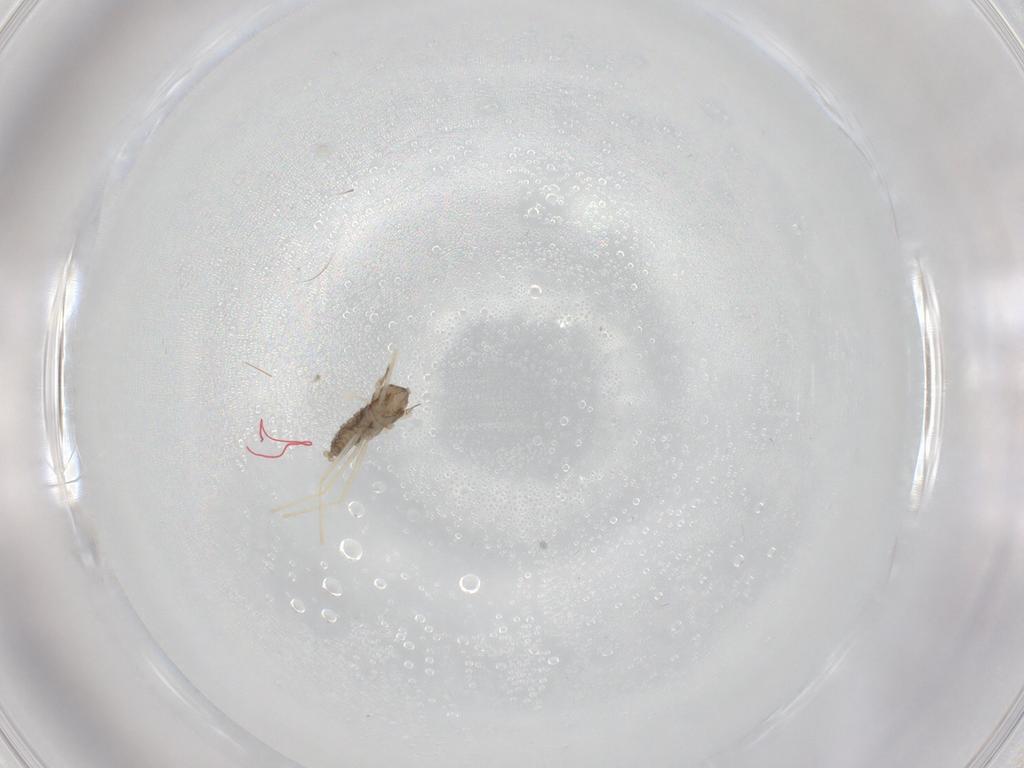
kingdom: Animalia
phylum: Arthropoda
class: Insecta
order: Diptera
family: Cecidomyiidae
